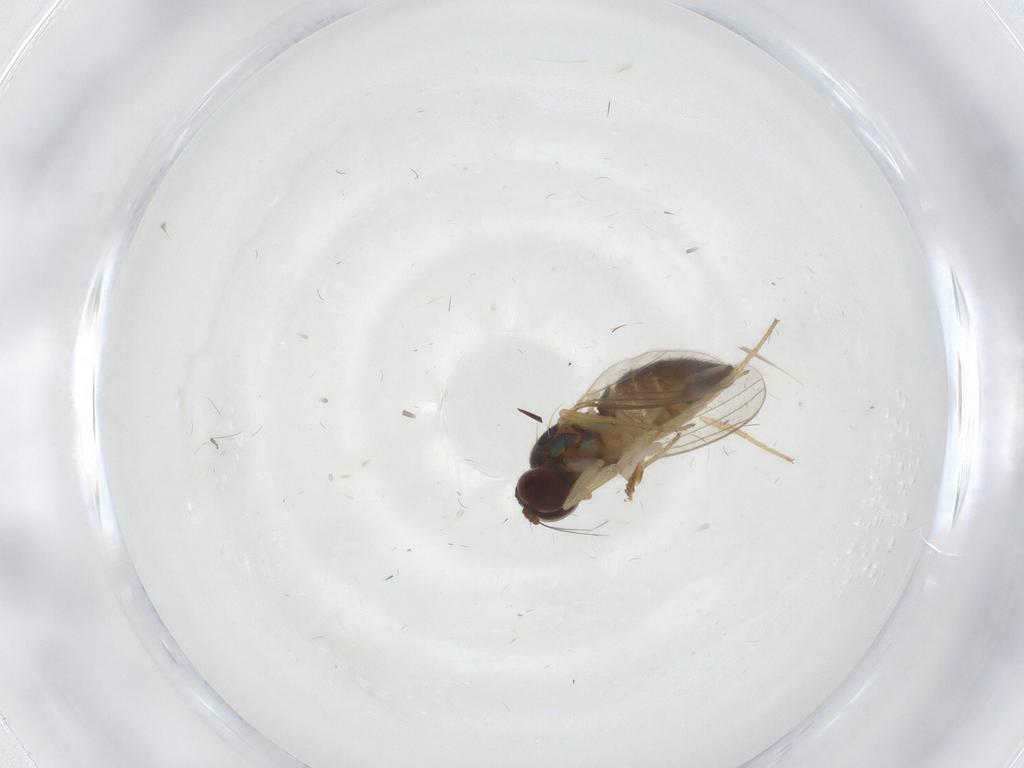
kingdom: Animalia
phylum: Arthropoda
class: Insecta
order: Diptera
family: Dolichopodidae
